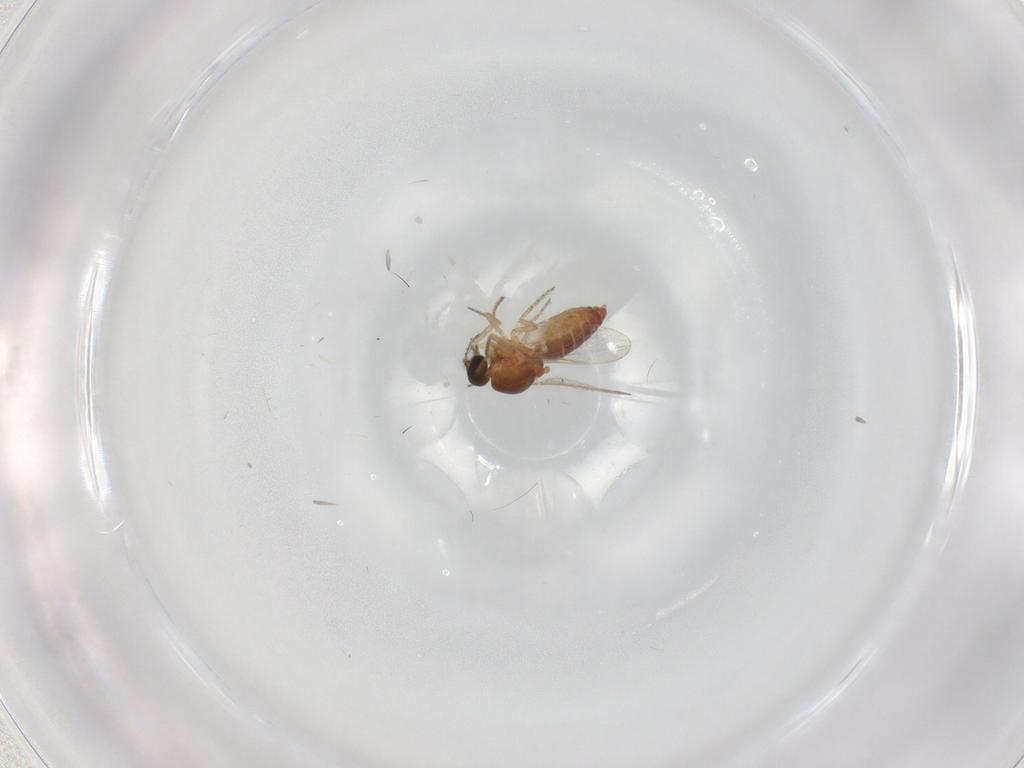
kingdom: Animalia
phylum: Arthropoda
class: Insecta
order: Diptera
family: Ceratopogonidae
